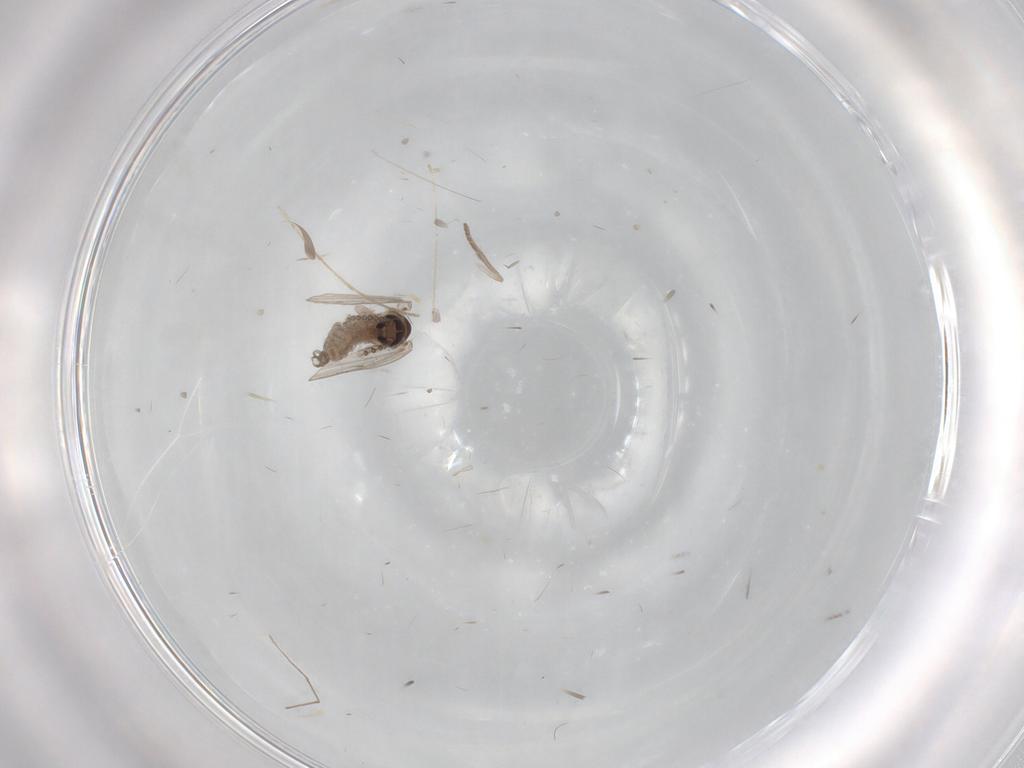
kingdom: Animalia
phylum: Arthropoda
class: Insecta
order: Diptera
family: Psychodidae
